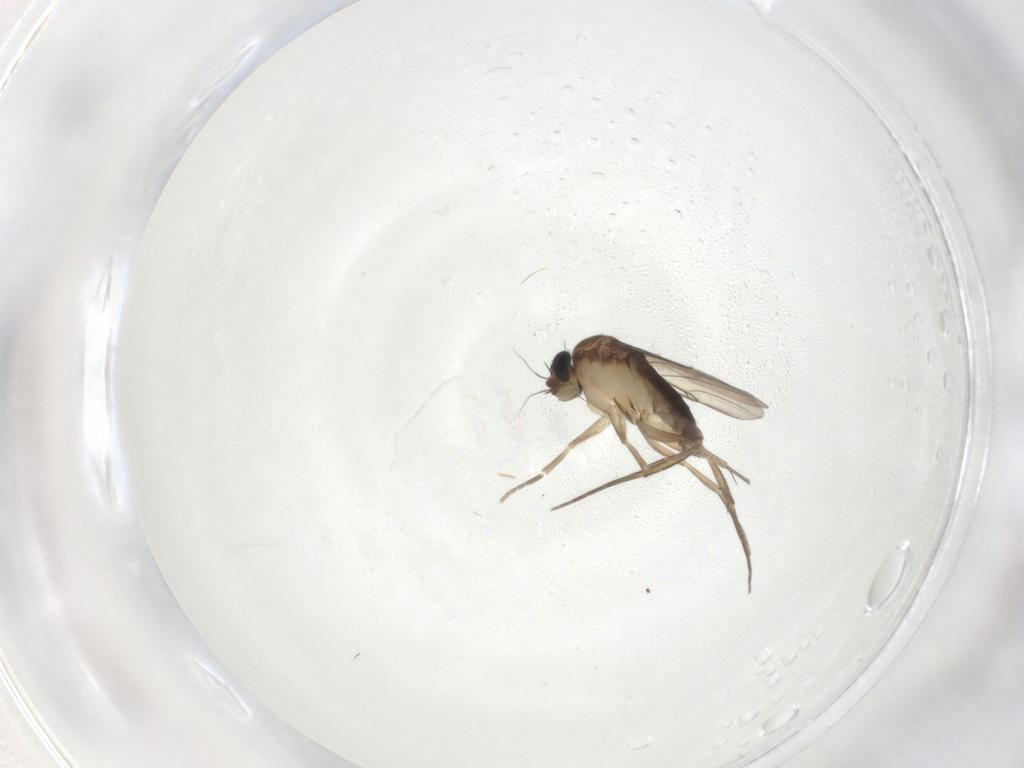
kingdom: Animalia
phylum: Arthropoda
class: Insecta
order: Diptera
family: Phoridae
